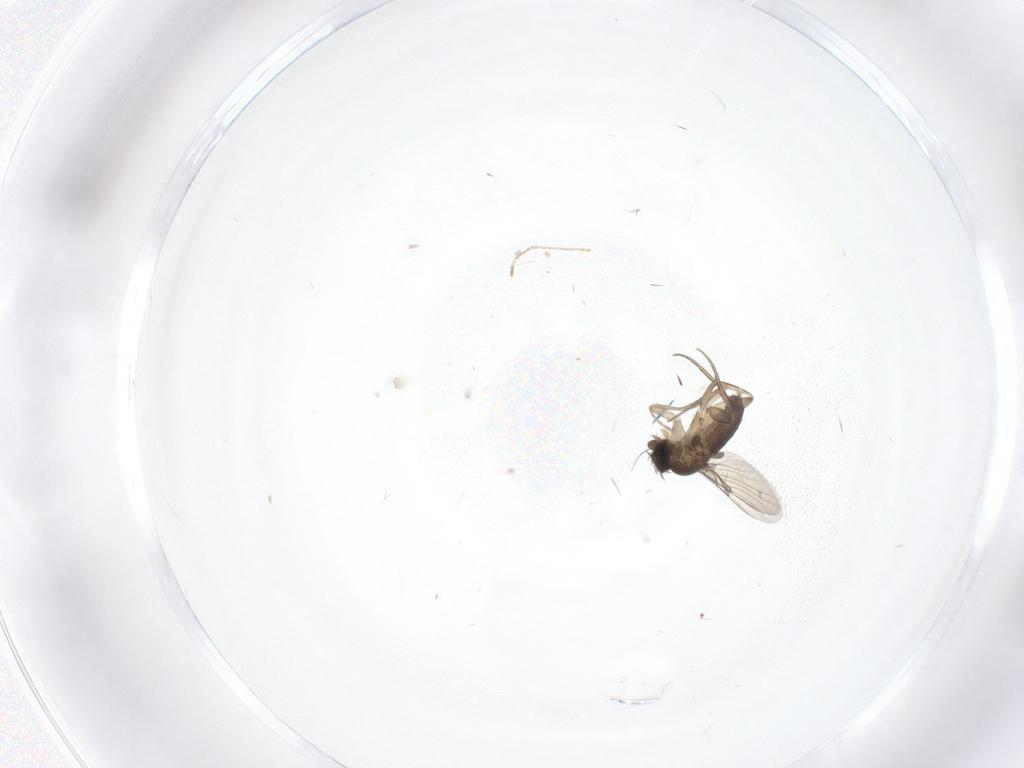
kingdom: Animalia
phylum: Arthropoda
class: Insecta
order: Diptera
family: Phoridae
